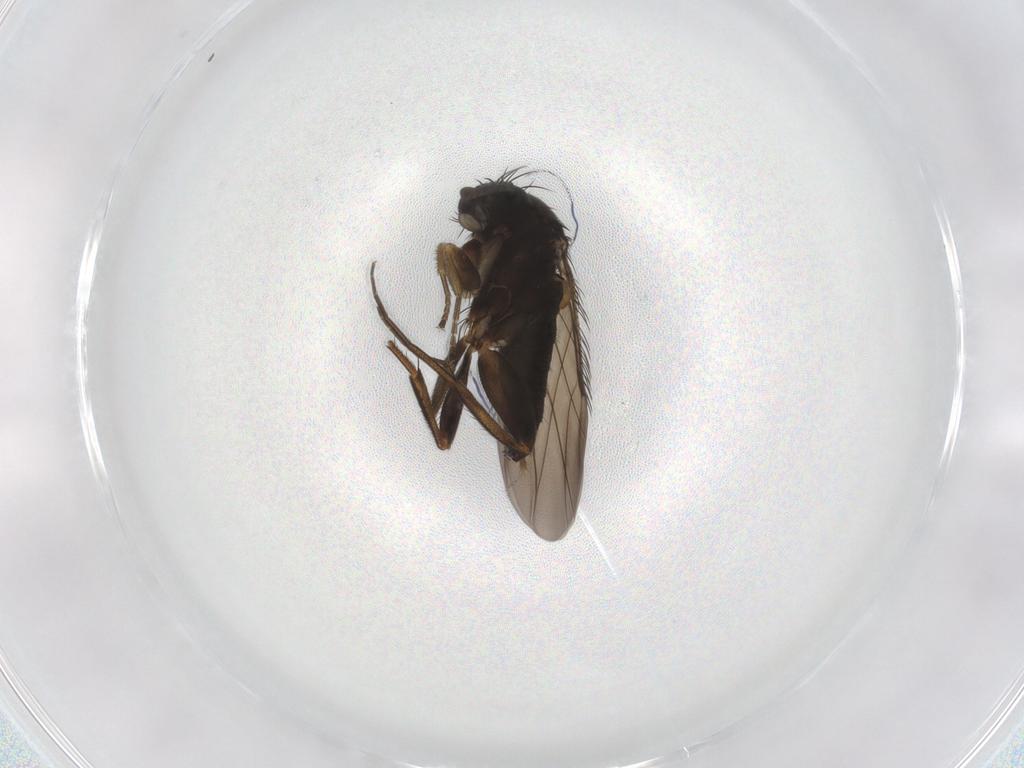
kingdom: Animalia
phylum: Arthropoda
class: Insecta
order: Diptera
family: Phoridae
